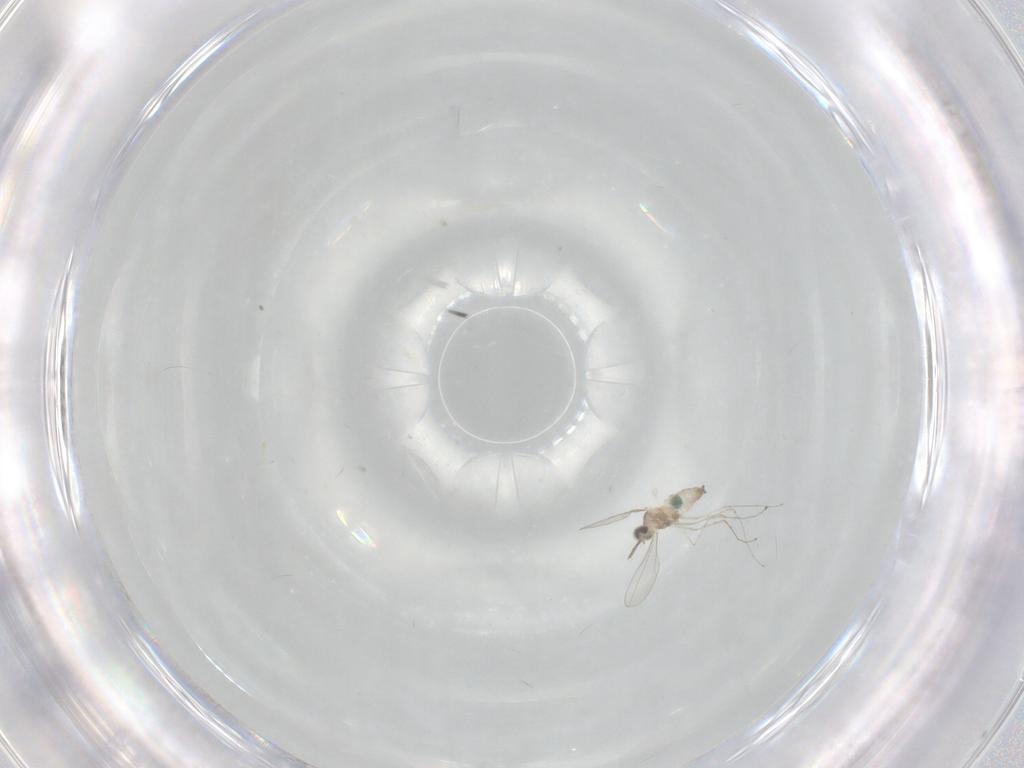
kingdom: Animalia
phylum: Arthropoda
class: Insecta
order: Diptera
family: Cecidomyiidae
